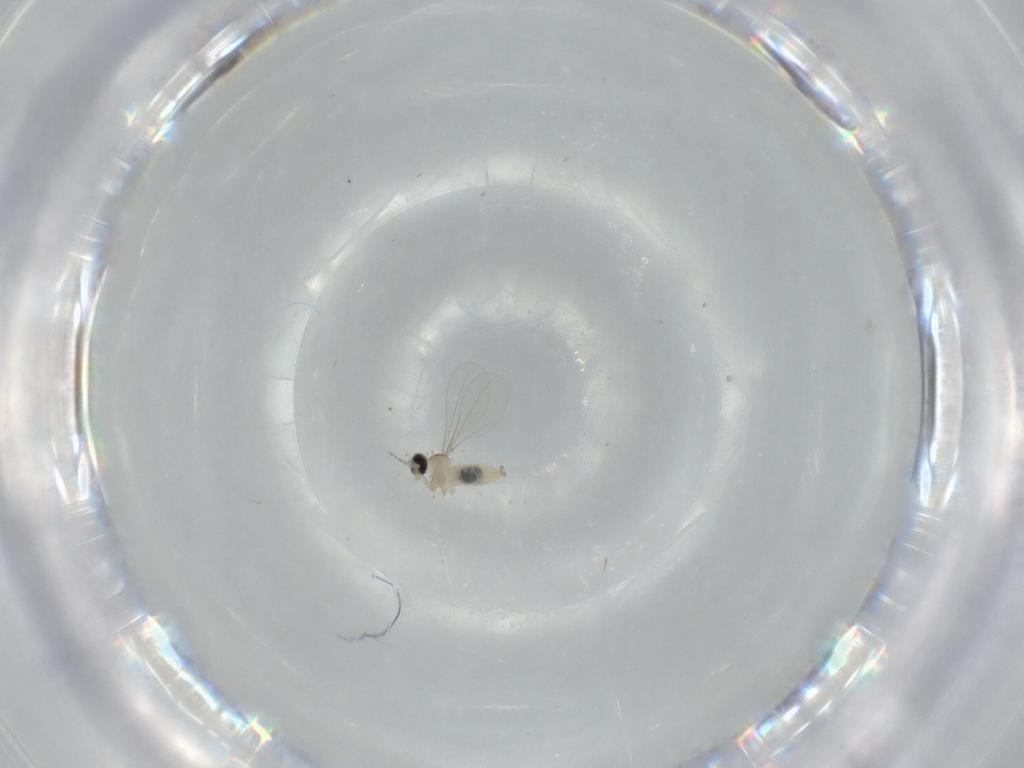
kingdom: Animalia
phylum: Arthropoda
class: Insecta
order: Diptera
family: Cecidomyiidae
